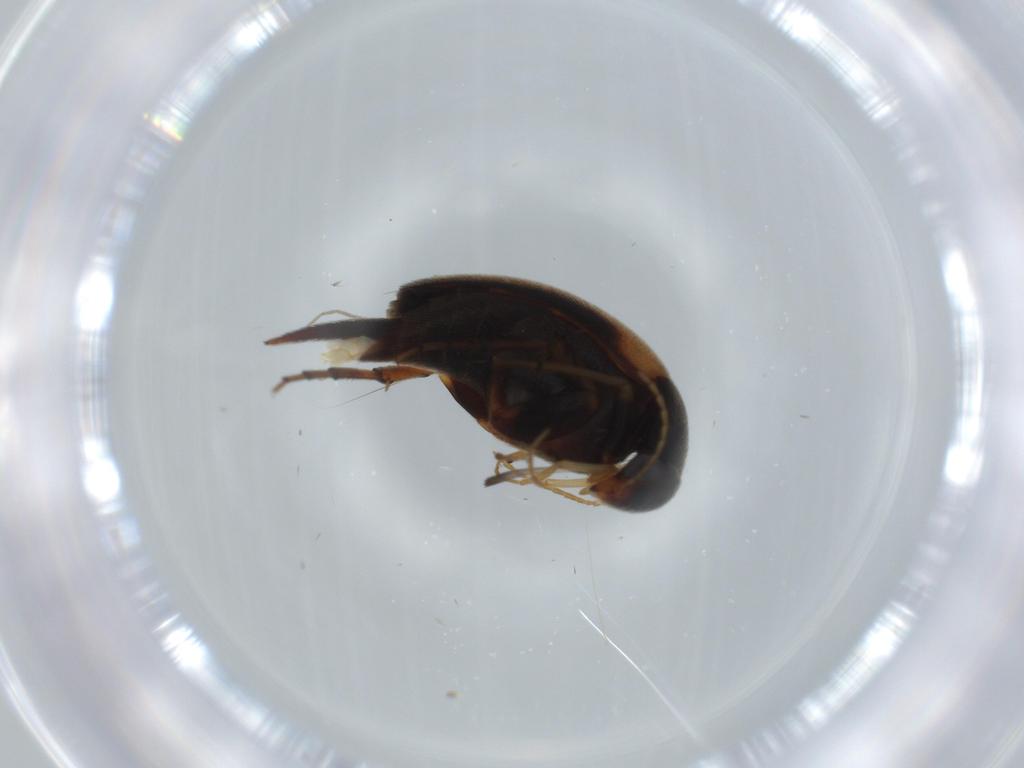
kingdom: Animalia
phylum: Arthropoda
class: Insecta
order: Coleoptera
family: Mordellidae
